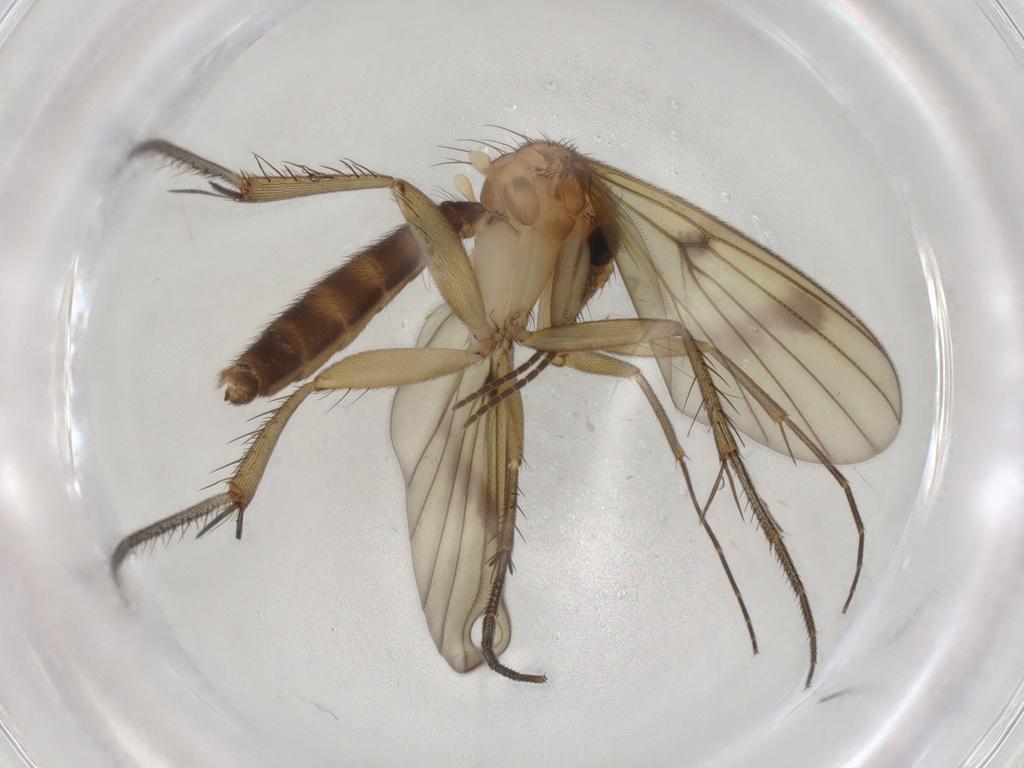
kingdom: Animalia
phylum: Arthropoda
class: Insecta
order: Diptera
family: Mycetophilidae
